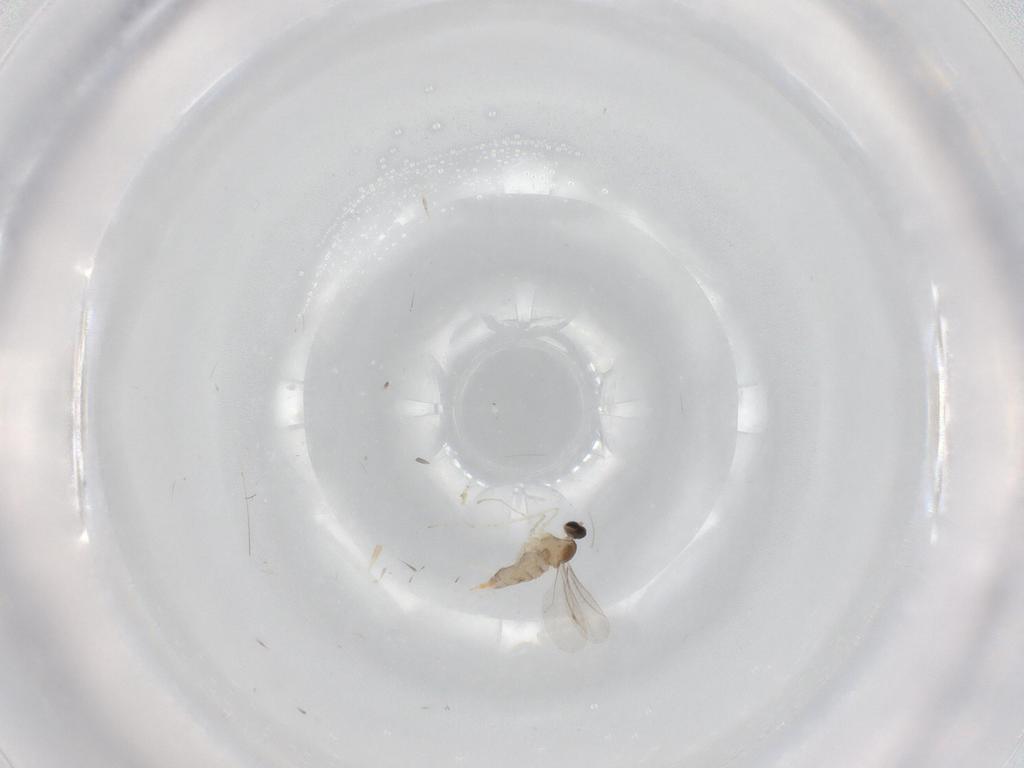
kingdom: Animalia
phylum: Arthropoda
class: Insecta
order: Diptera
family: Cecidomyiidae
